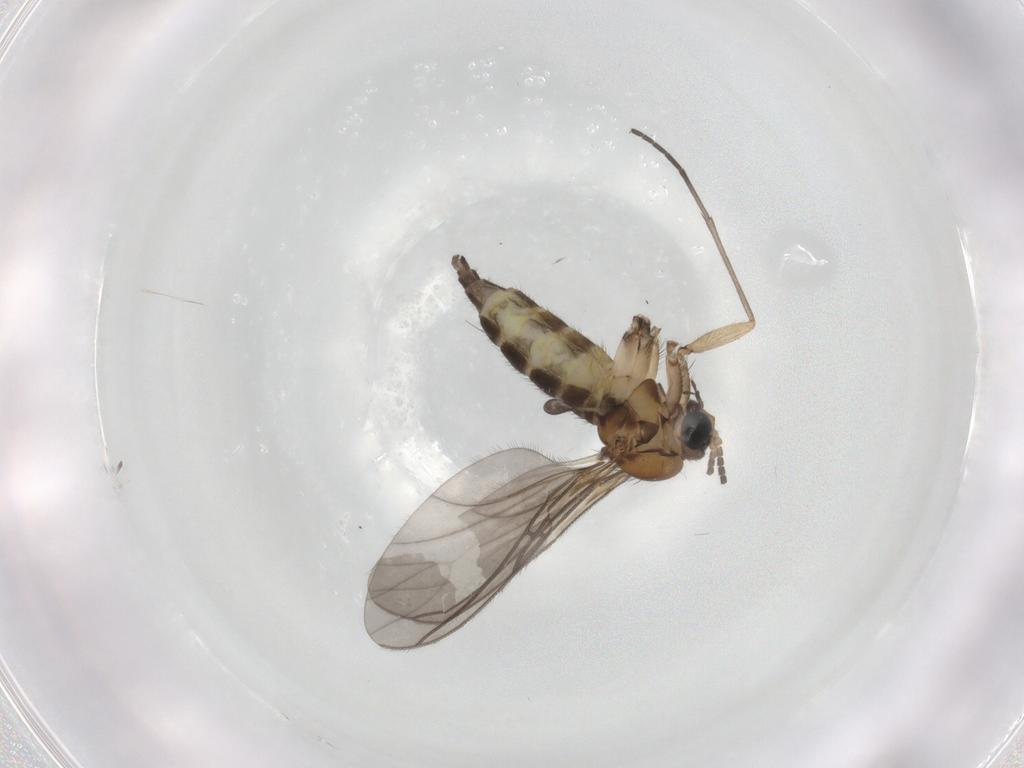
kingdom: Animalia
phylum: Arthropoda
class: Insecta
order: Diptera
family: Sciaridae
